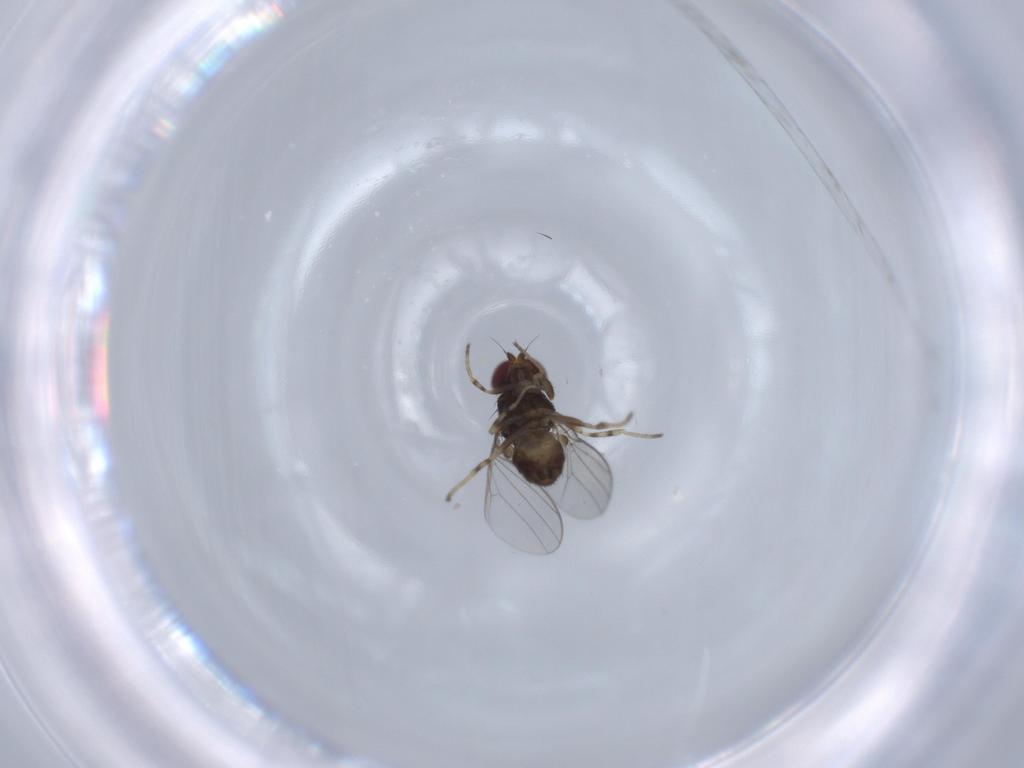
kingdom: Animalia
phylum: Arthropoda
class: Insecta
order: Diptera
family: Chloropidae
